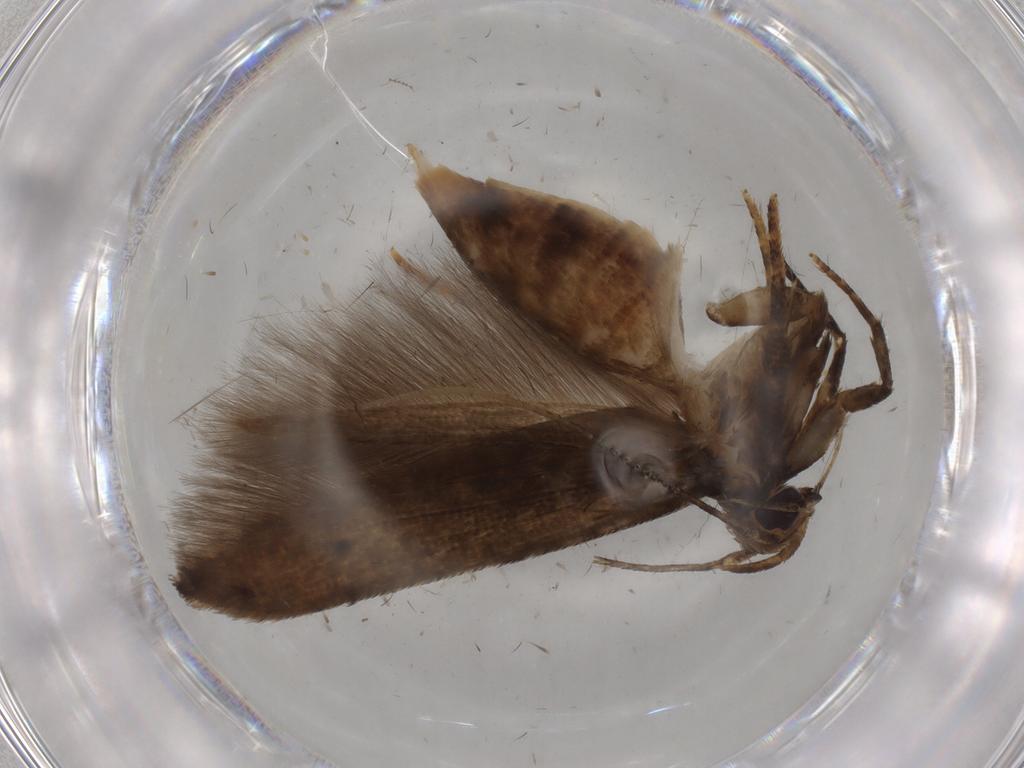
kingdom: Animalia
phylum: Arthropoda
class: Insecta
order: Lepidoptera
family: Autostichidae
